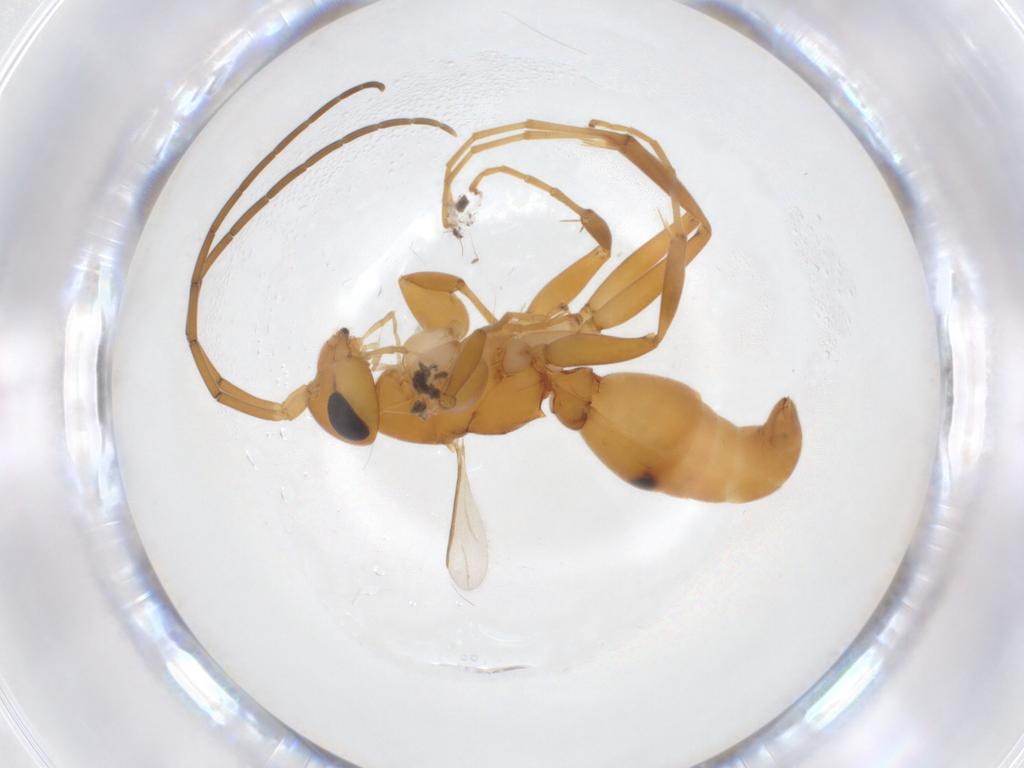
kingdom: Animalia
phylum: Arthropoda
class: Insecta
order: Hymenoptera
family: Rhopalosomatidae
